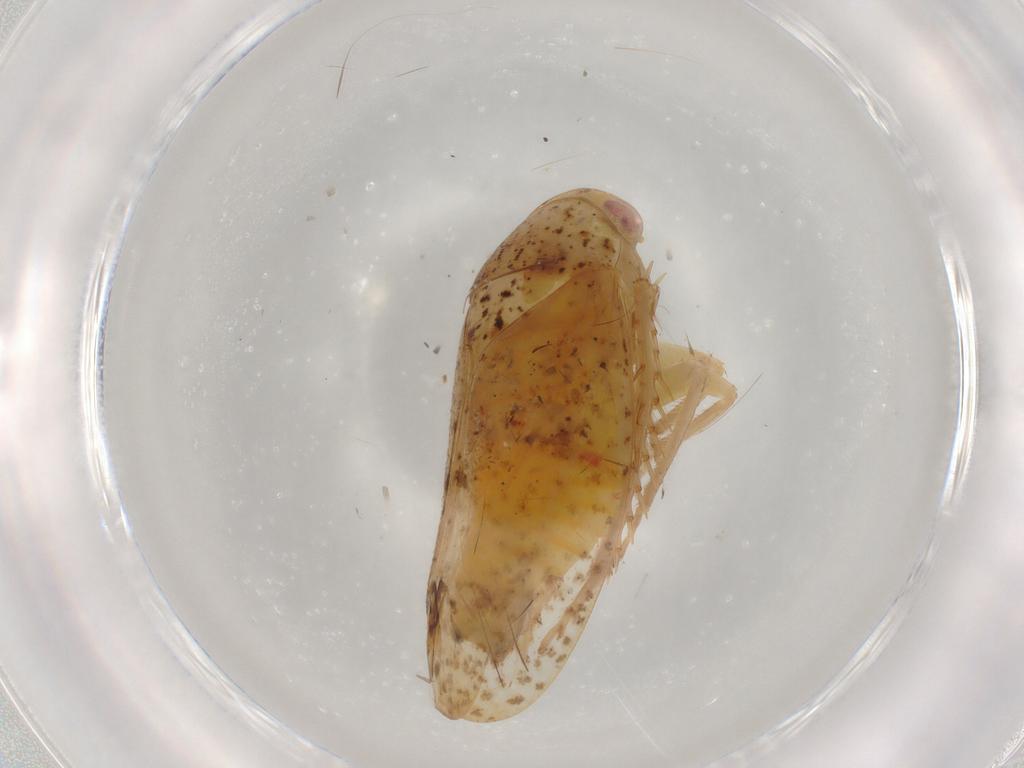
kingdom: Animalia
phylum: Arthropoda
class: Insecta
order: Hemiptera
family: Cicadellidae
